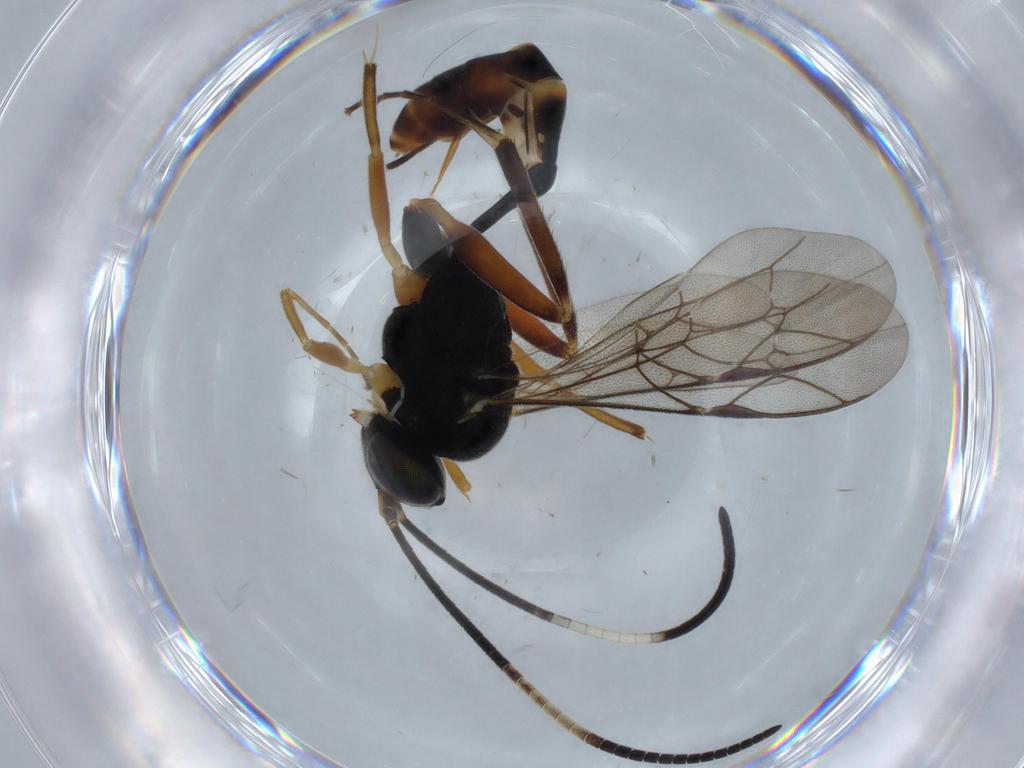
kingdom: Animalia
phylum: Arthropoda
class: Insecta
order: Hymenoptera
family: Ichneumonidae
